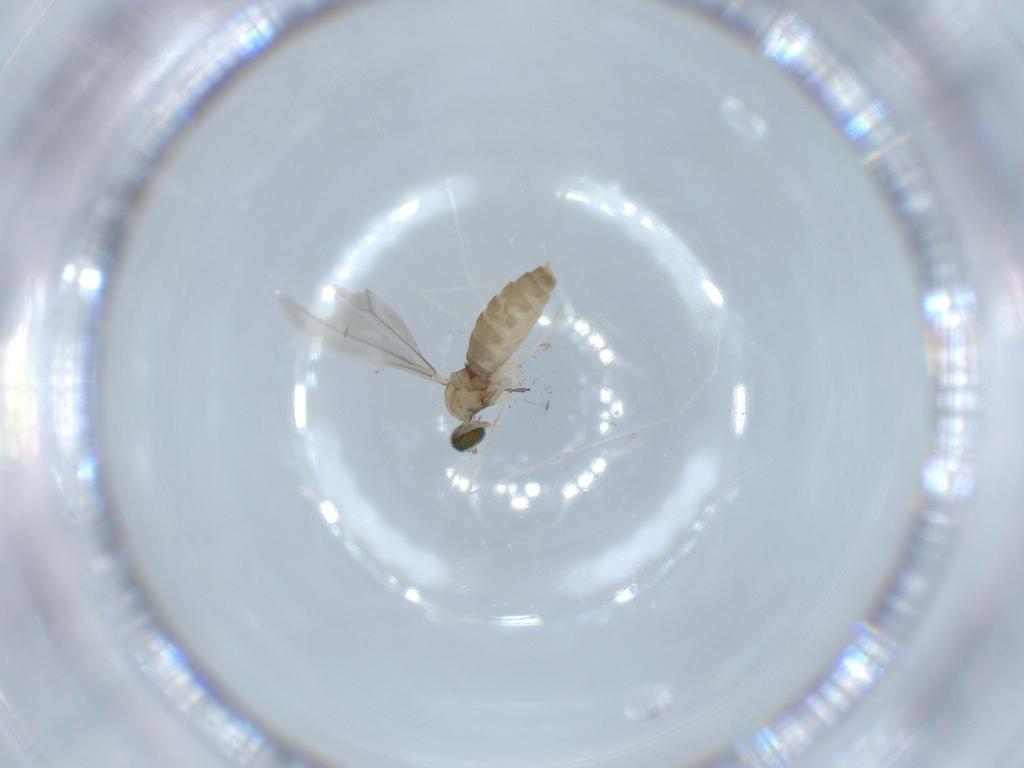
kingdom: Animalia
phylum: Arthropoda
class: Insecta
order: Diptera
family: Cecidomyiidae
